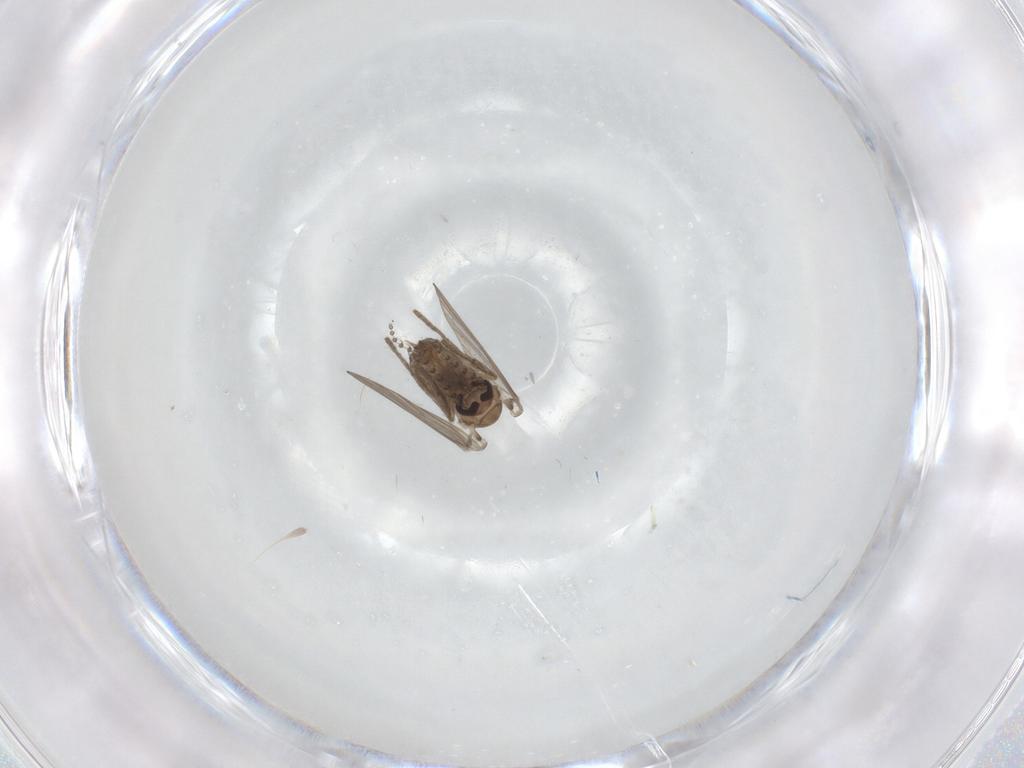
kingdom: Animalia
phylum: Arthropoda
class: Insecta
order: Diptera
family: Psychodidae
